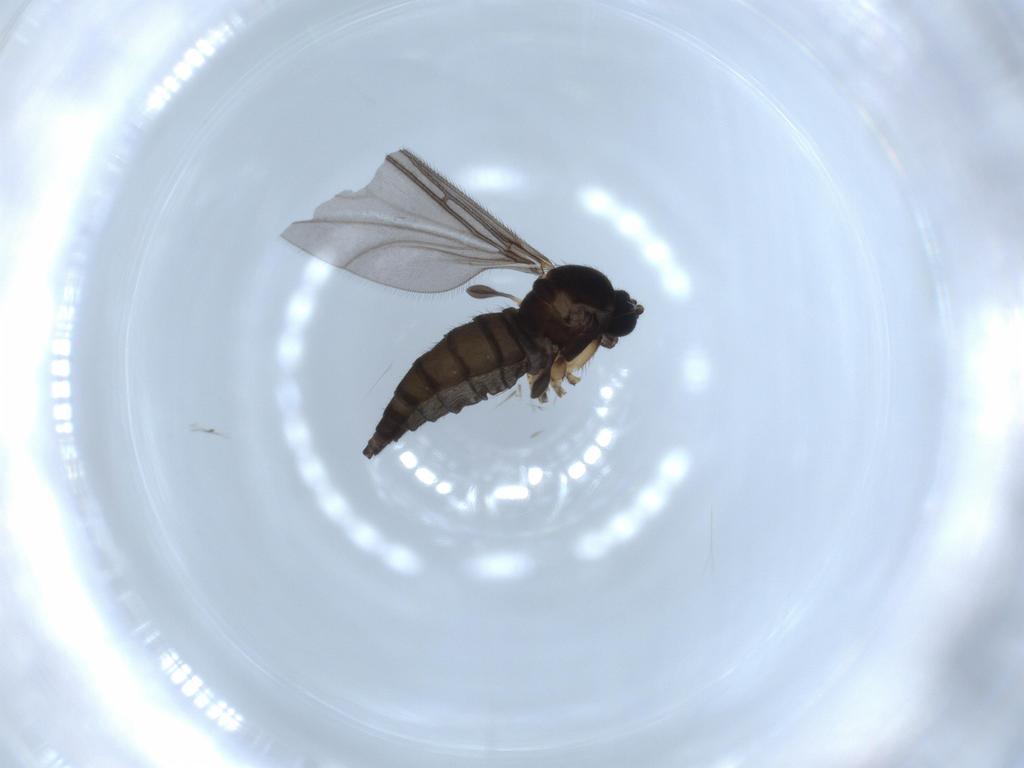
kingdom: Animalia
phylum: Arthropoda
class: Insecta
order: Diptera
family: Sciaridae
